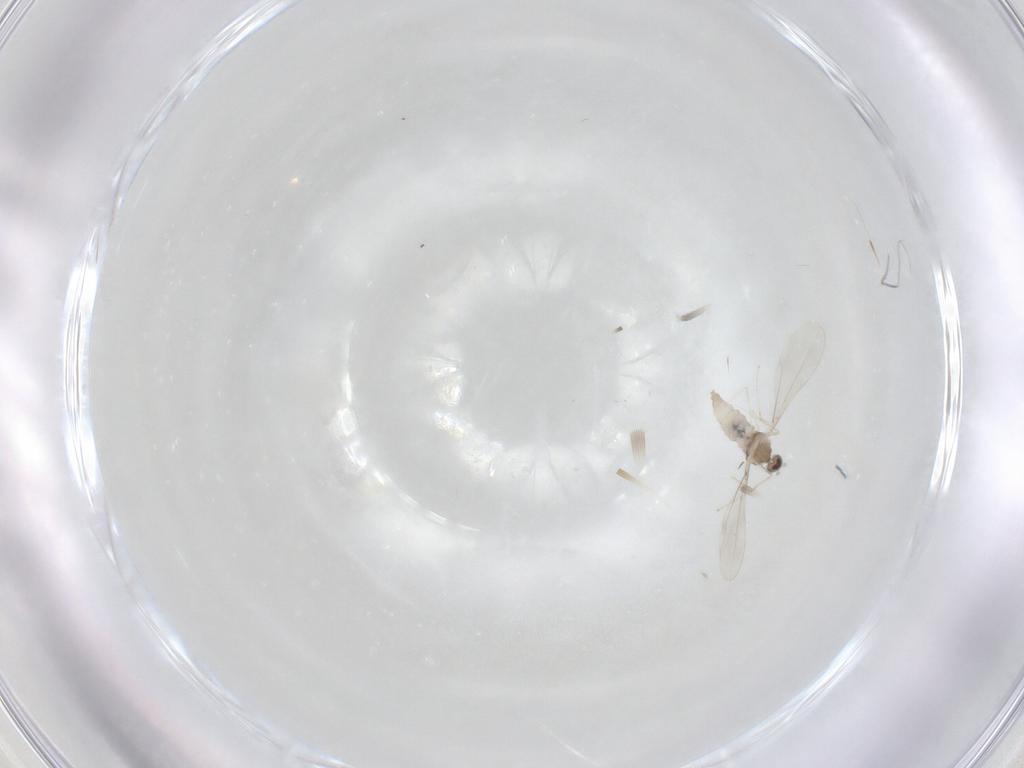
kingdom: Animalia
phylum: Arthropoda
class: Insecta
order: Diptera
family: Cecidomyiidae
